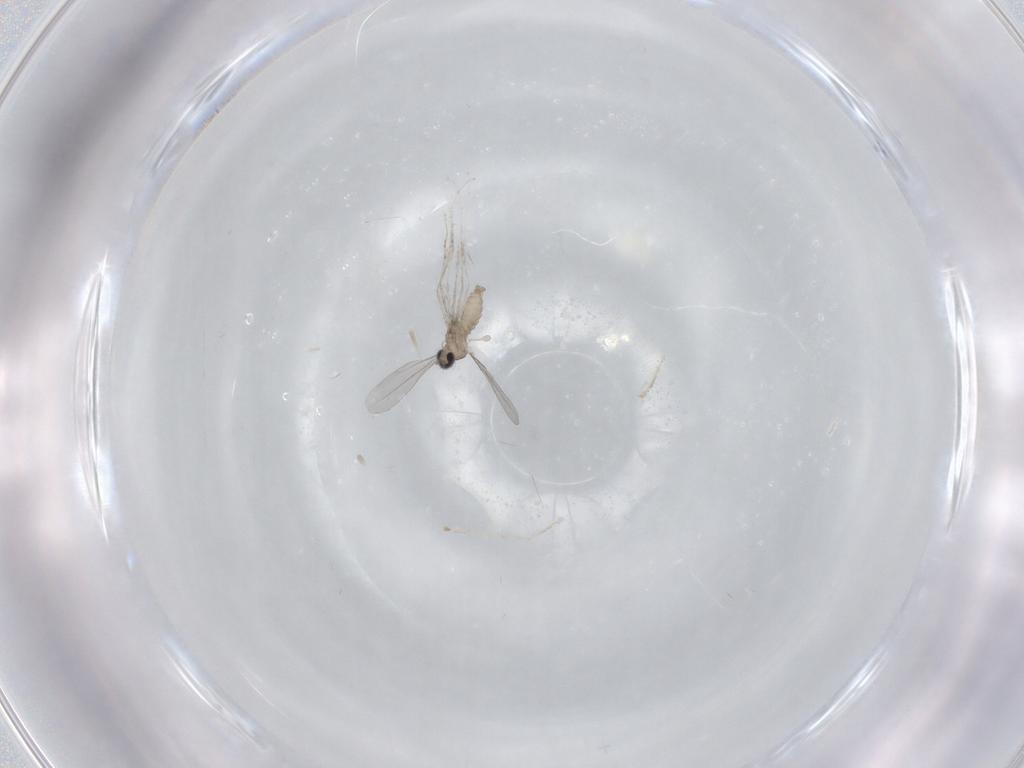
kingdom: Animalia
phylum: Arthropoda
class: Insecta
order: Diptera
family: Cecidomyiidae
